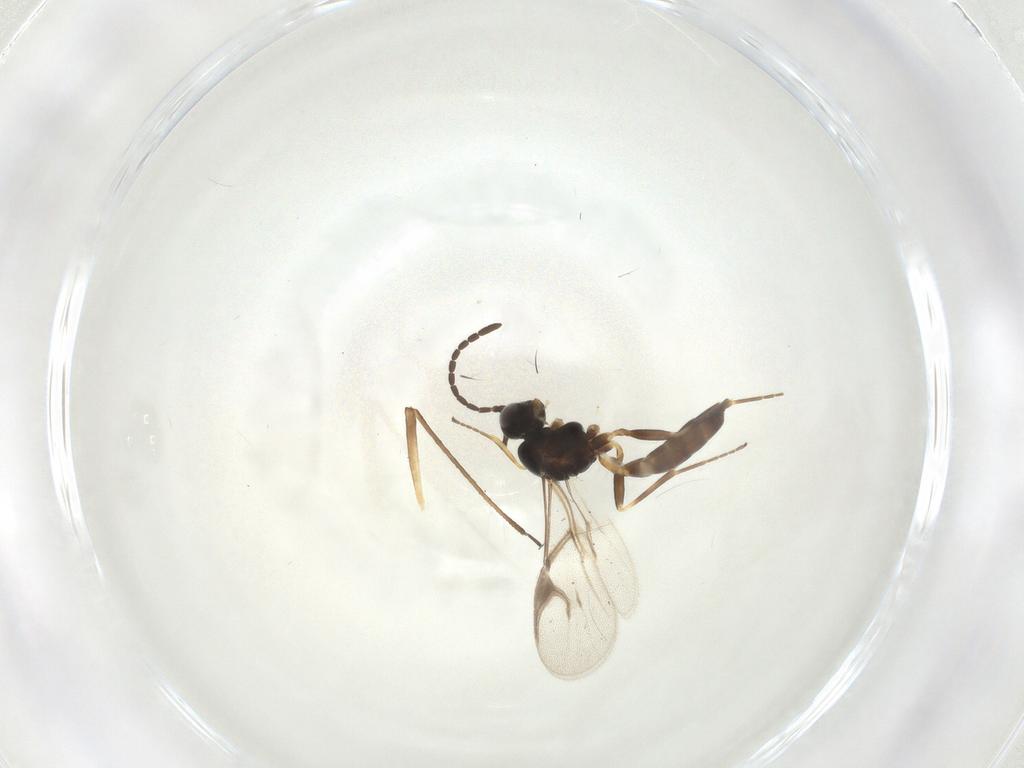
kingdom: Animalia
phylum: Arthropoda
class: Insecta
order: Hymenoptera
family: Braconidae
